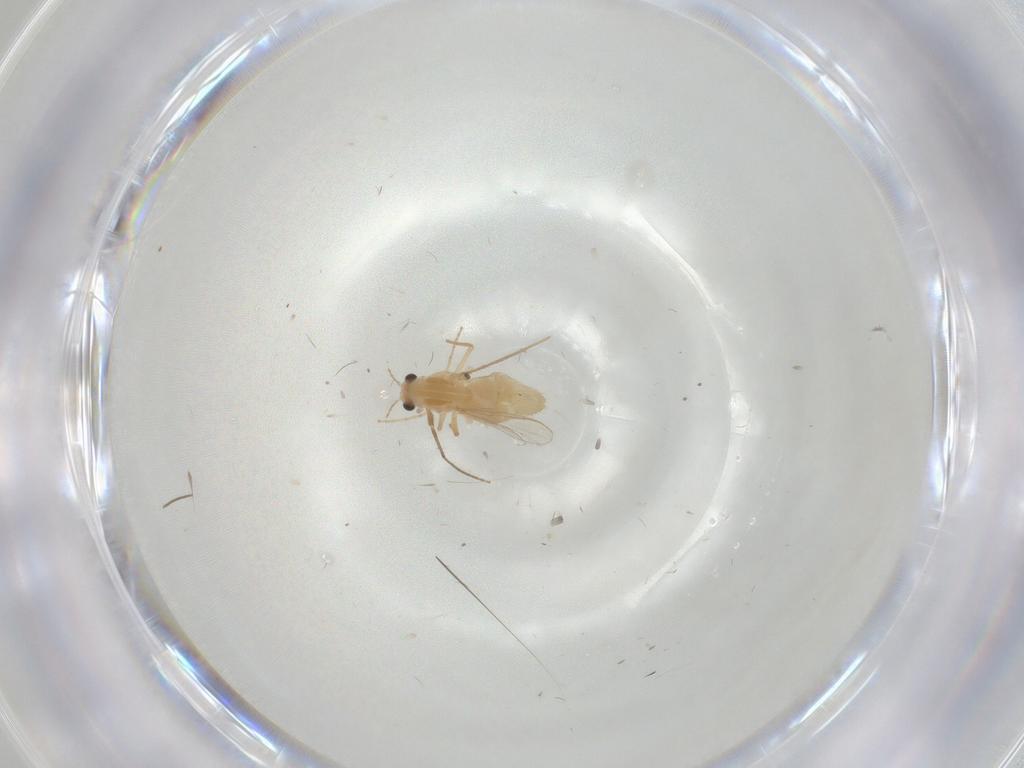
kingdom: Animalia
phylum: Arthropoda
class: Insecta
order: Diptera
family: Chironomidae
